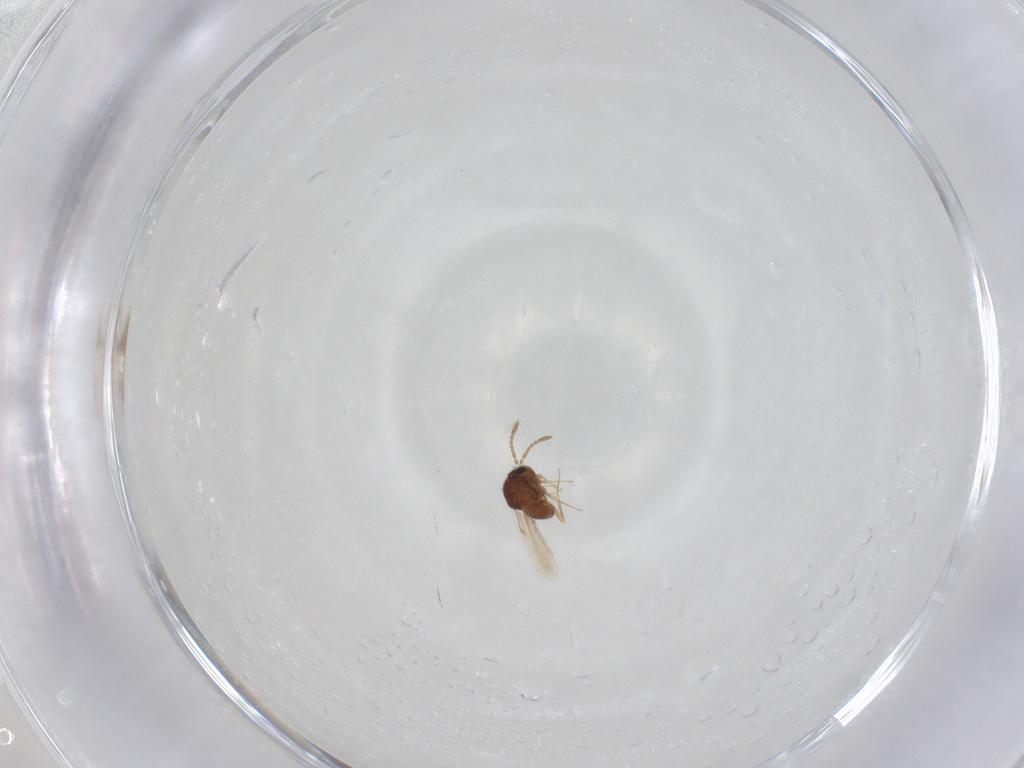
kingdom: Animalia
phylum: Arthropoda
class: Insecta
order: Hymenoptera
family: Scelionidae
